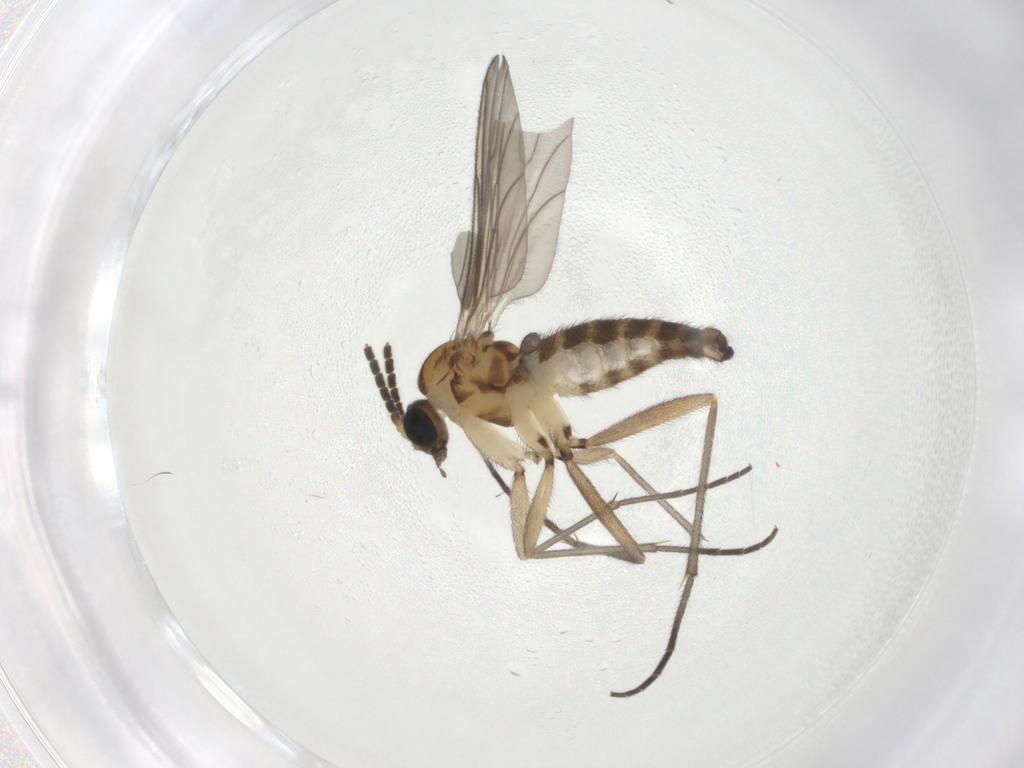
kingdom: Animalia
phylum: Arthropoda
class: Insecta
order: Diptera
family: Sciaridae
